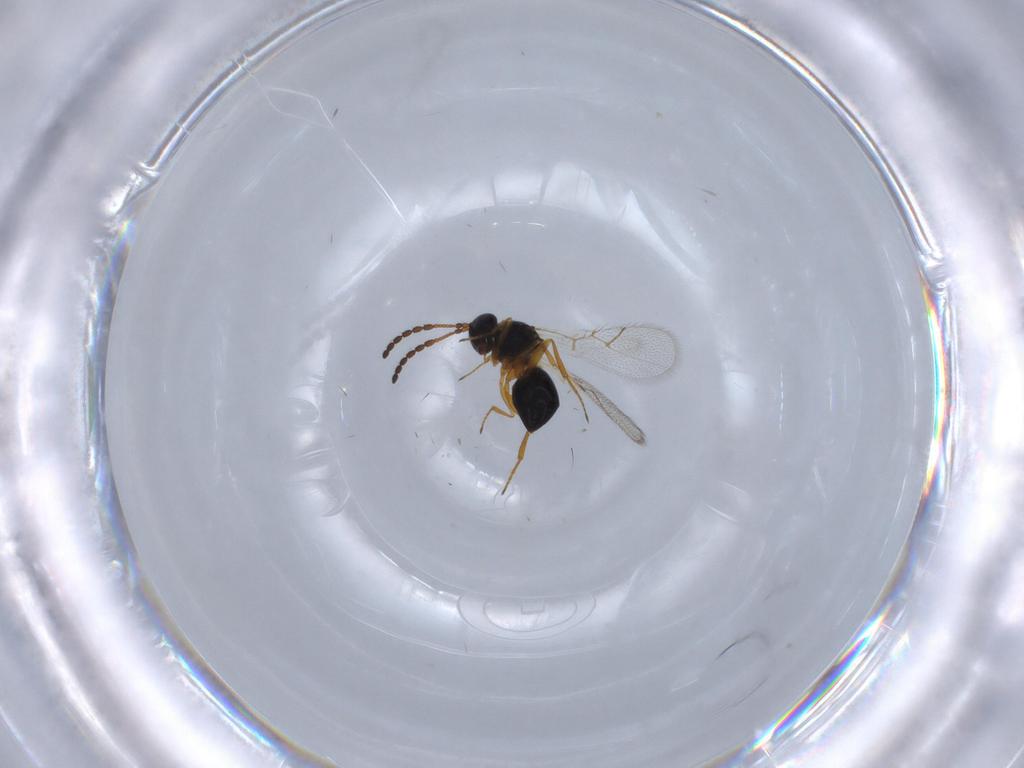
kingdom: Animalia
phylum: Arthropoda
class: Insecta
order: Hymenoptera
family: Figitidae
